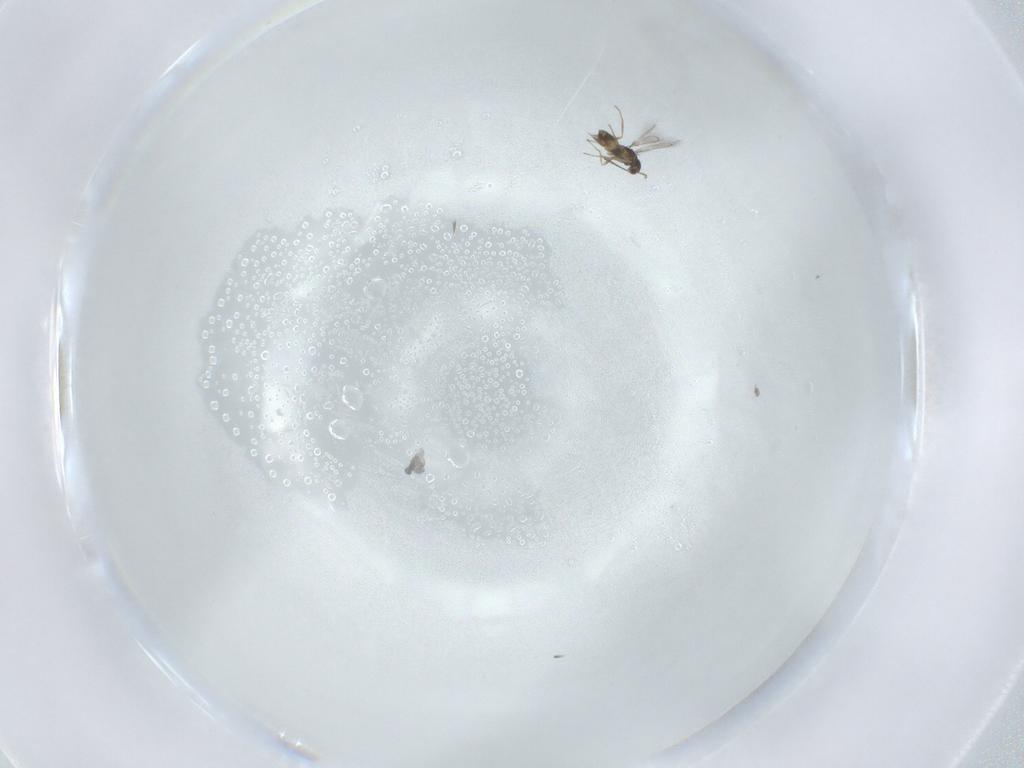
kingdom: Animalia
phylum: Arthropoda
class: Insecta
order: Hymenoptera
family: Mymaridae
